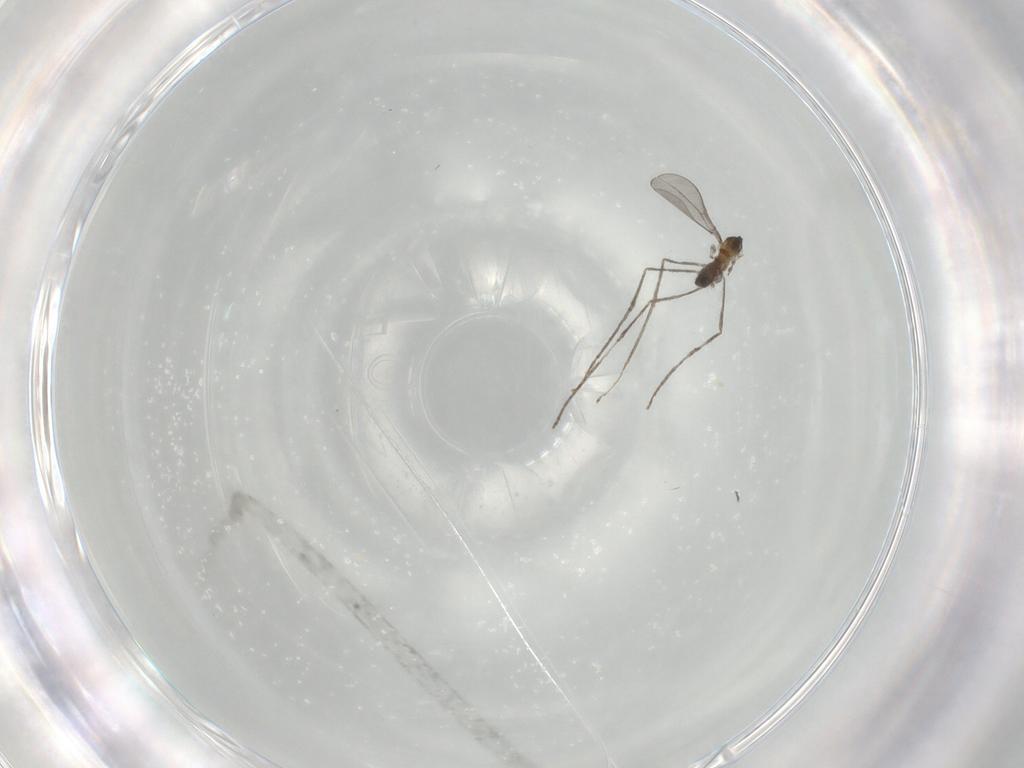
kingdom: Animalia
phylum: Arthropoda
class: Insecta
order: Diptera
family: Cecidomyiidae
